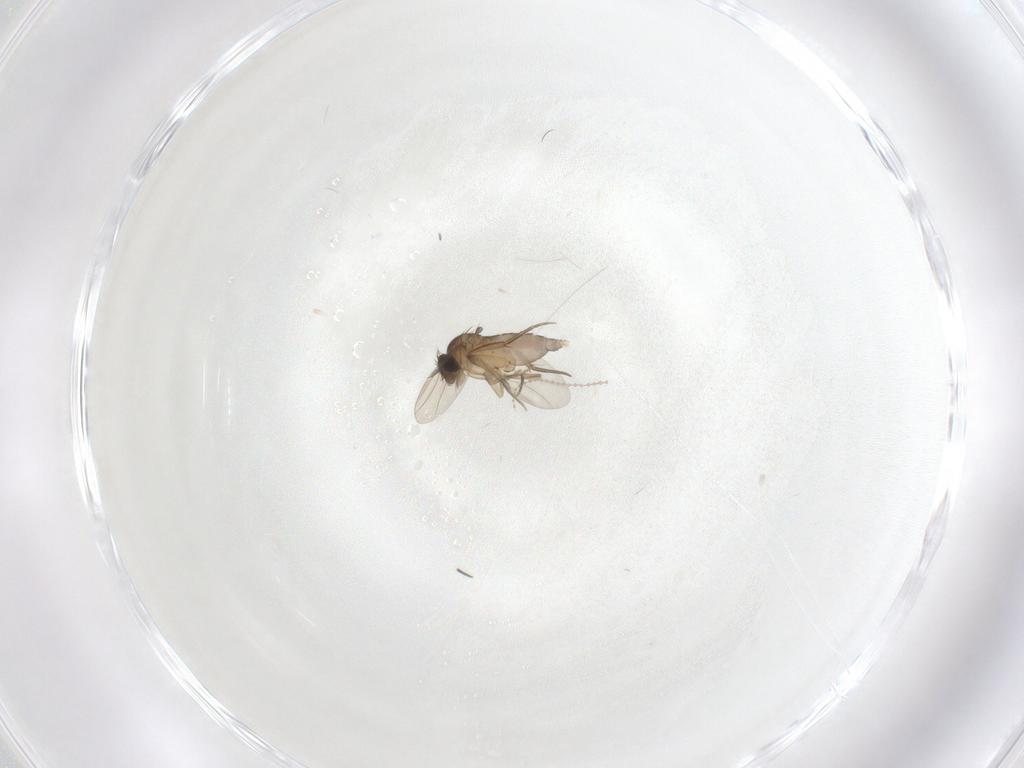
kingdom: Animalia
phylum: Arthropoda
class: Insecta
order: Diptera
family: Phoridae
